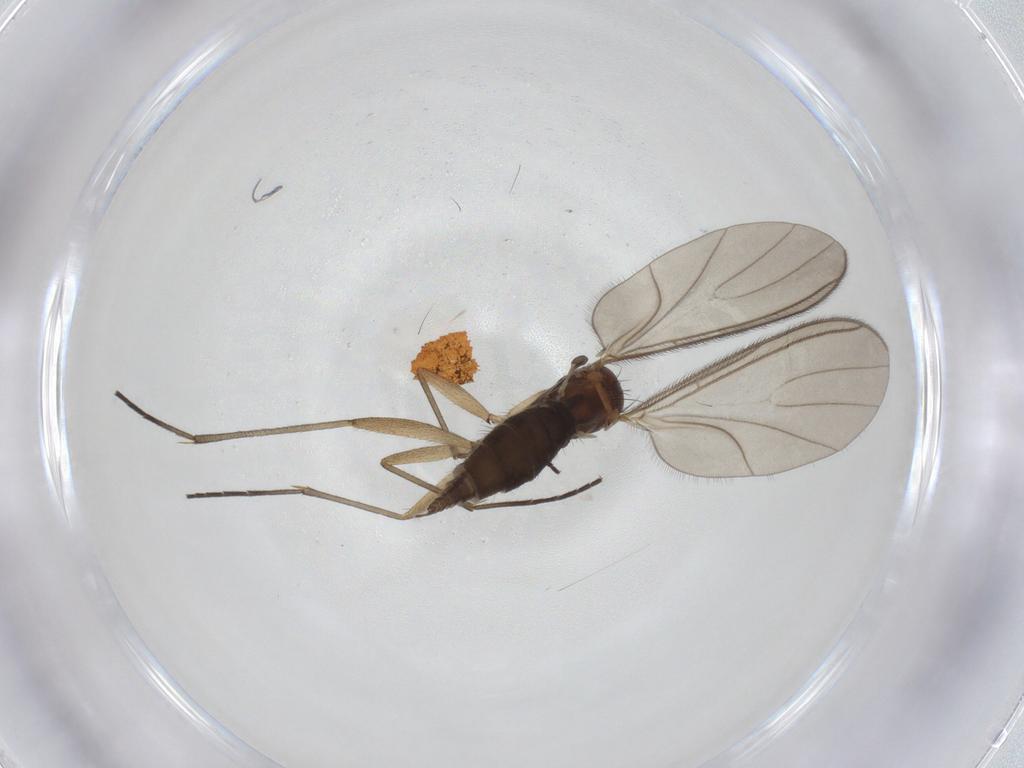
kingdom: Animalia
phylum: Arthropoda
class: Insecta
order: Diptera
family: Sciaridae
